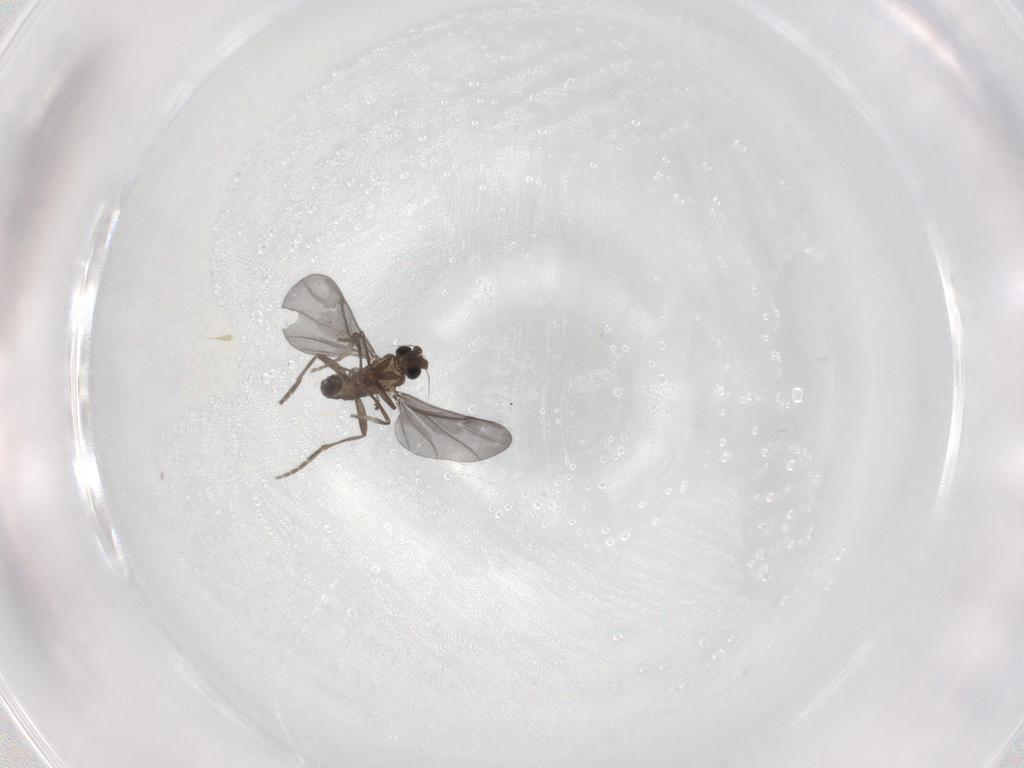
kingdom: Animalia
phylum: Arthropoda
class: Insecta
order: Diptera
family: Phoridae
